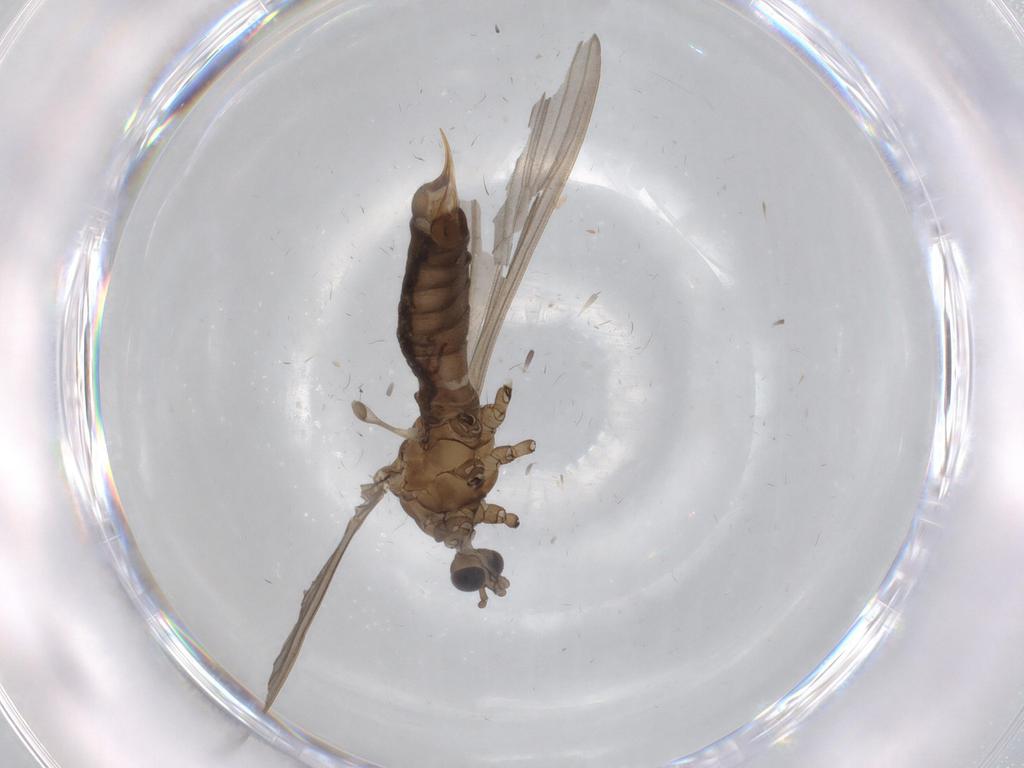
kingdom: Animalia
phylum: Arthropoda
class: Insecta
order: Diptera
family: Limoniidae
